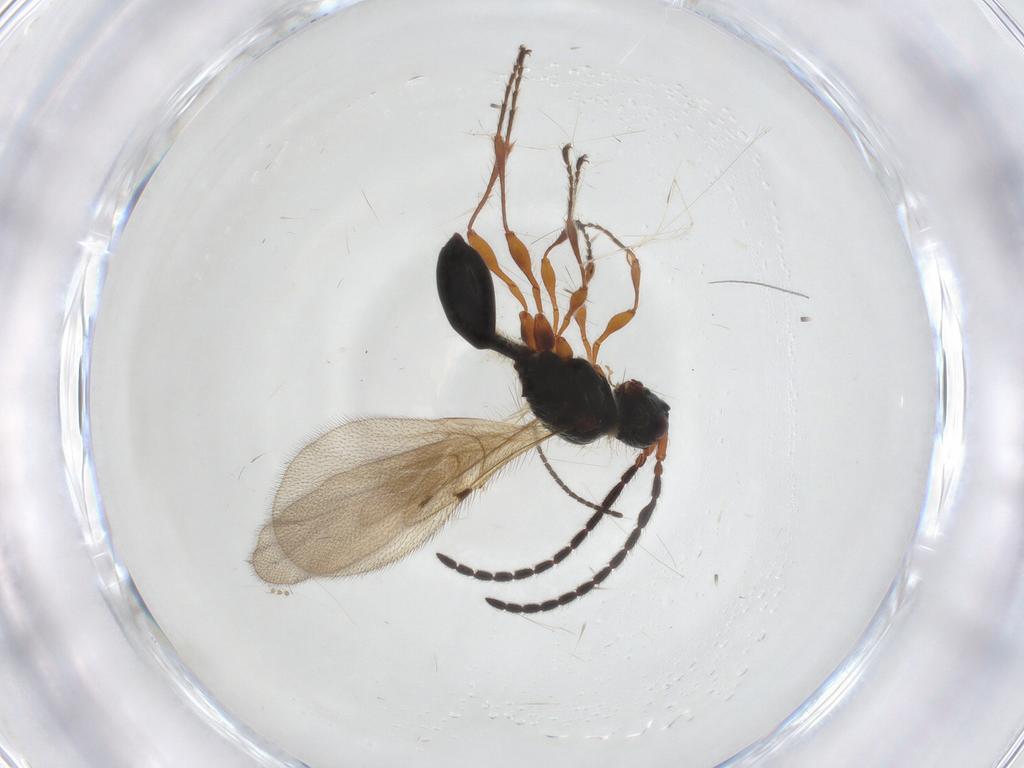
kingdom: Animalia
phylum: Arthropoda
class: Insecta
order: Hymenoptera
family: Diapriidae
